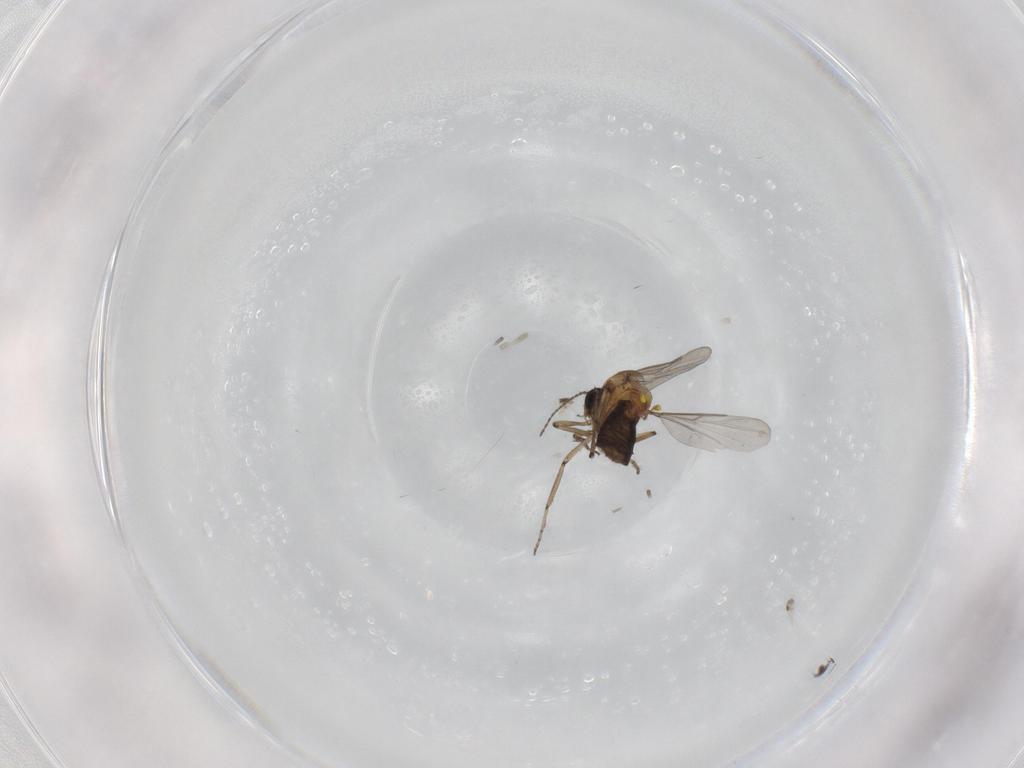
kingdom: Animalia
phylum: Arthropoda
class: Insecta
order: Diptera
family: Ceratopogonidae
